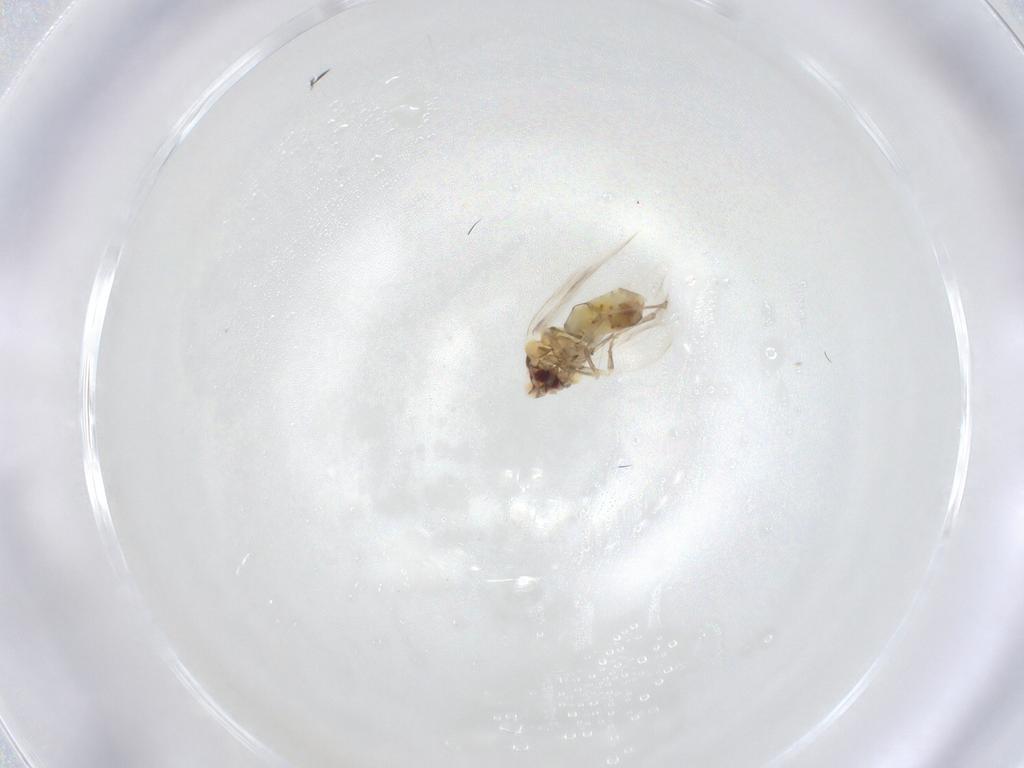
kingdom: Animalia
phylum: Arthropoda
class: Insecta
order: Hemiptera
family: Aleyrodidae
